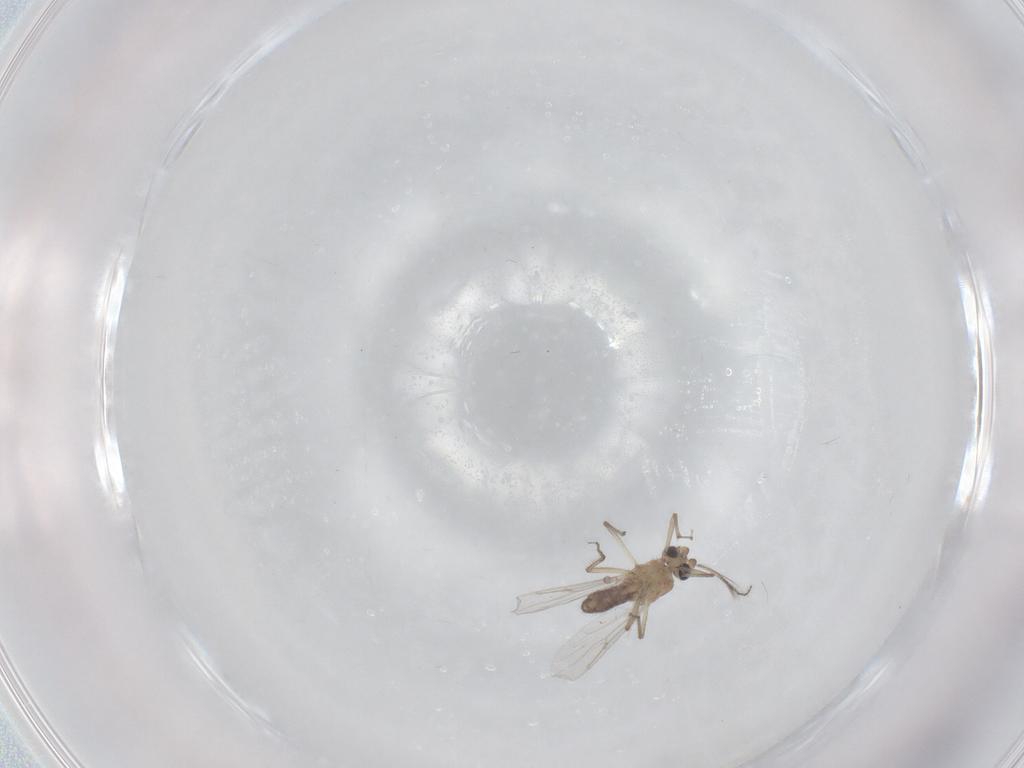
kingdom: Animalia
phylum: Arthropoda
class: Insecta
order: Diptera
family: Ceratopogonidae
